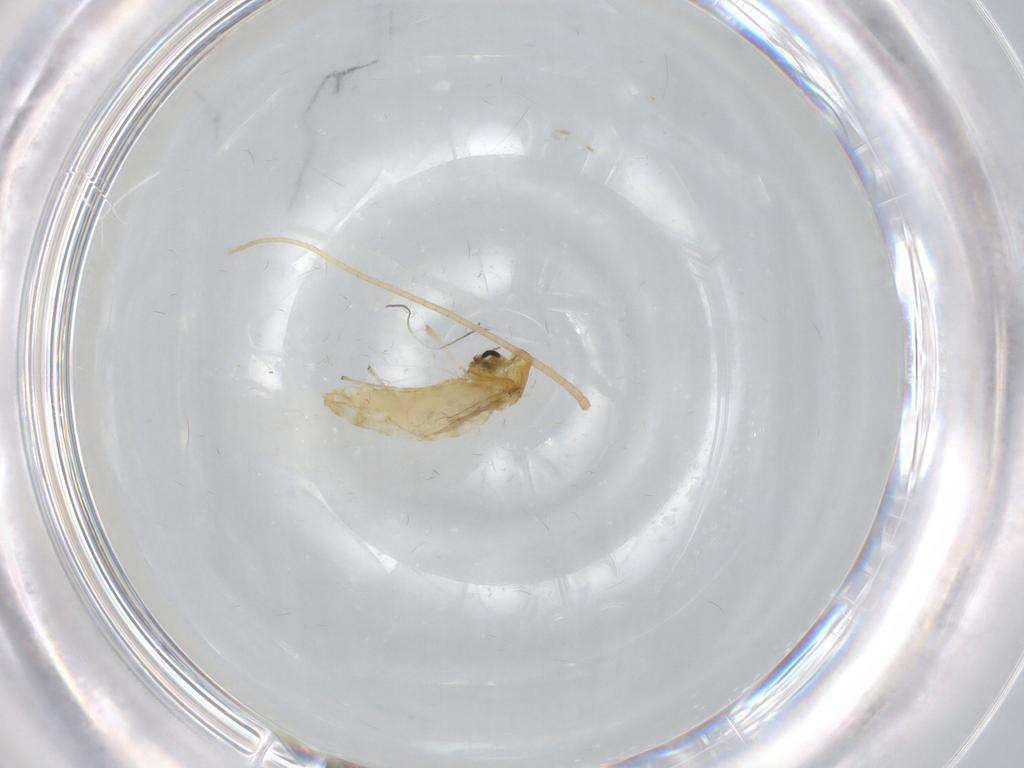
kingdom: Animalia
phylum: Arthropoda
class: Insecta
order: Diptera
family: Chironomidae
